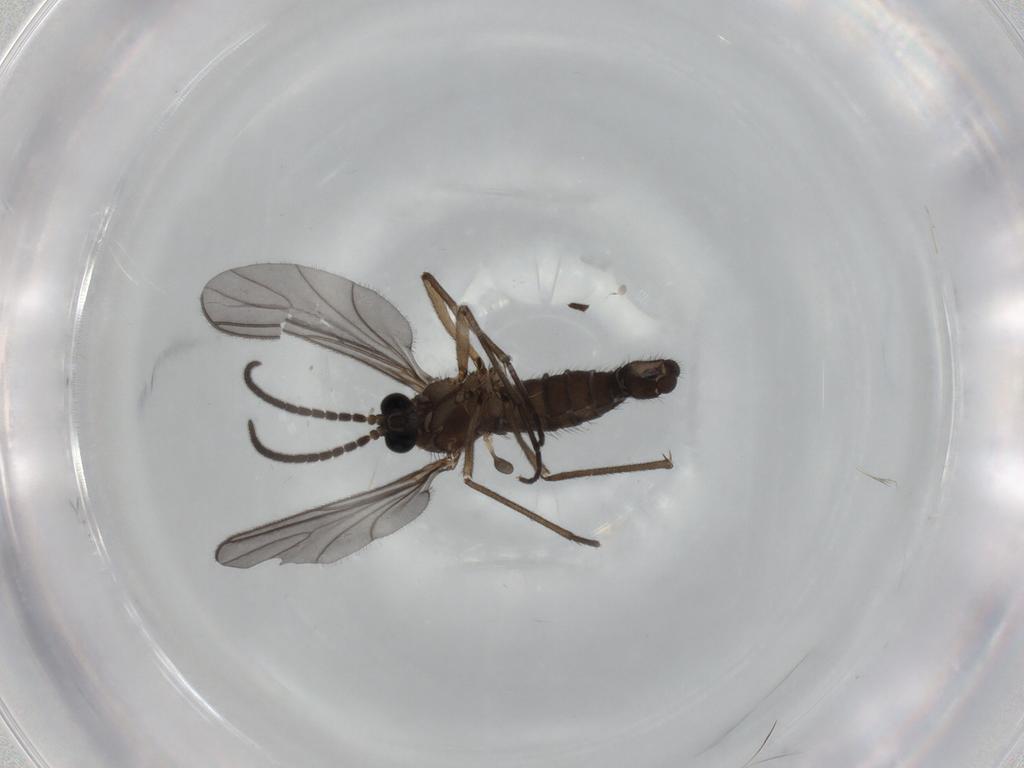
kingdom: Animalia
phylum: Arthropoda
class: Insecta
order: Diptera
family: Sciaridae
